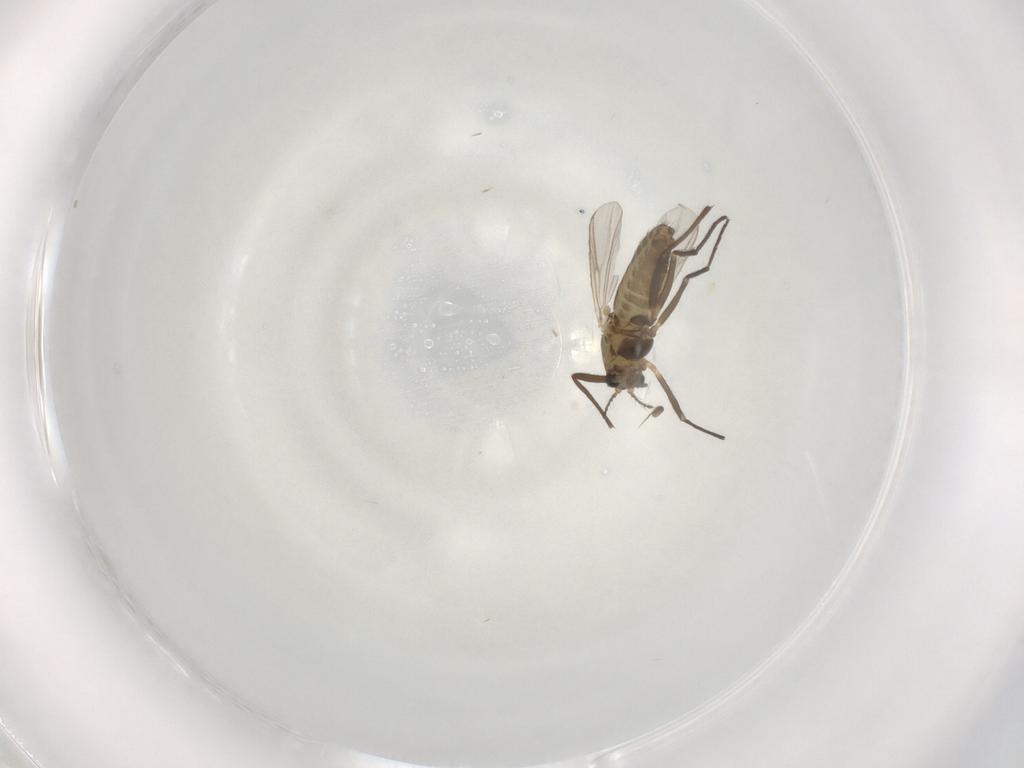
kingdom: Animalia
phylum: Arthropoda
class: Insecta
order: Diptera
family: Chironomidae
